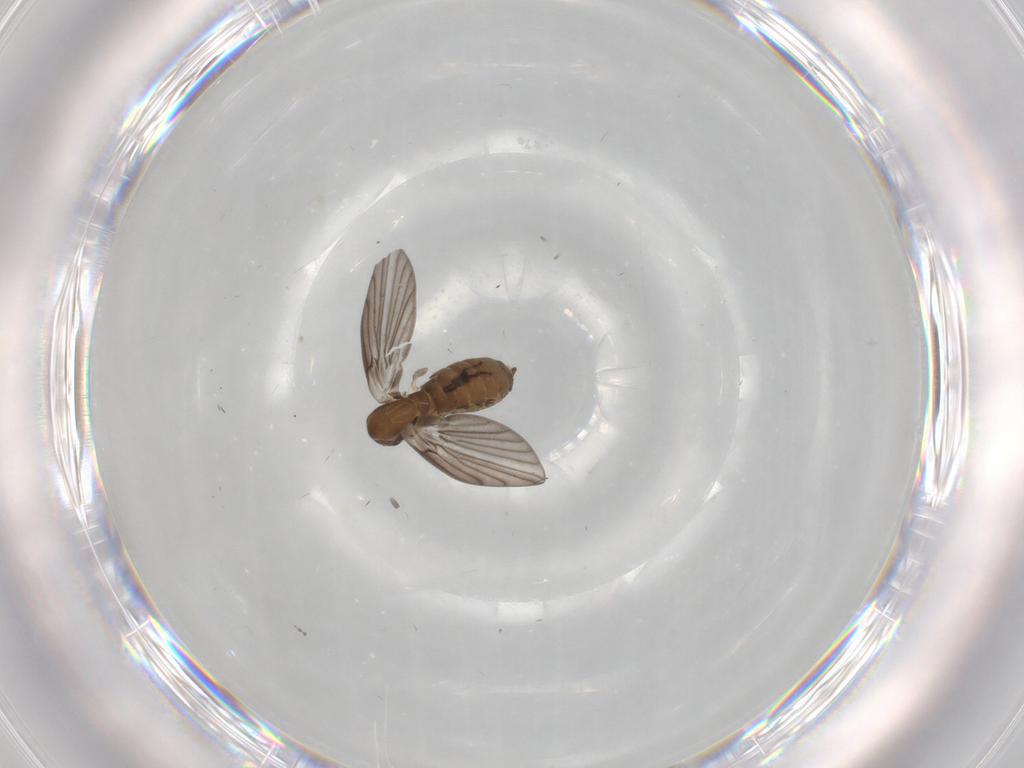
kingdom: Animalia
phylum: Arthropoda
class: Insecta
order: Diptera
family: Psychodidae
